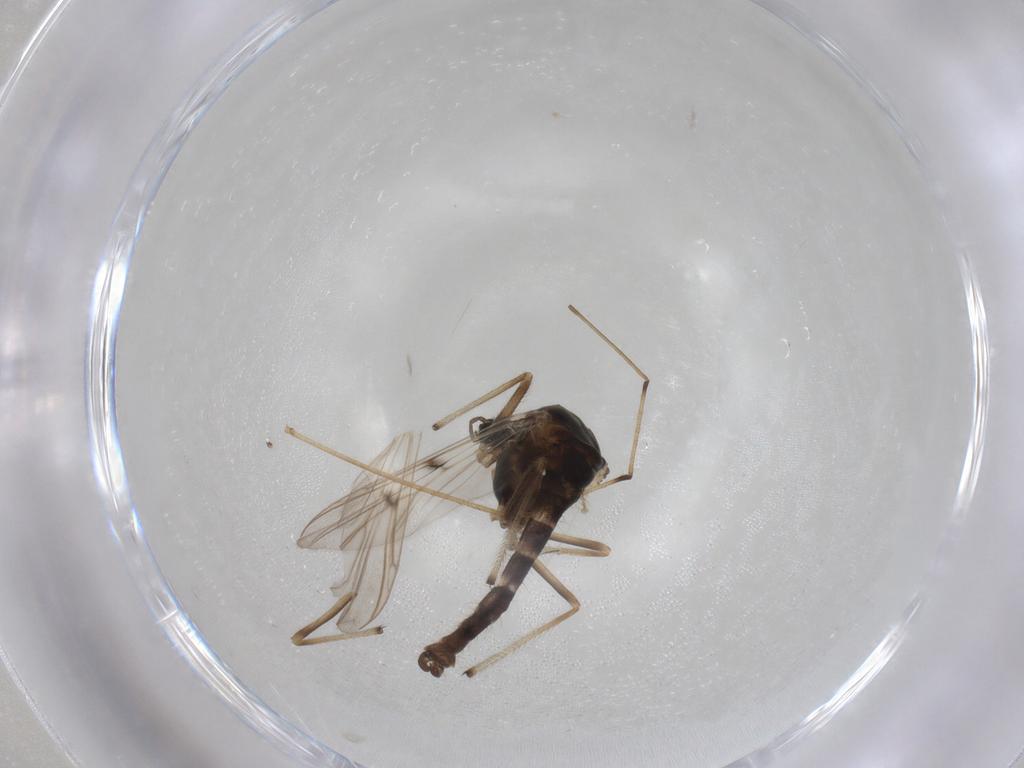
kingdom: Animalia
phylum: Arthropoda
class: Insecta
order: Diptera
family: Chironomidae
